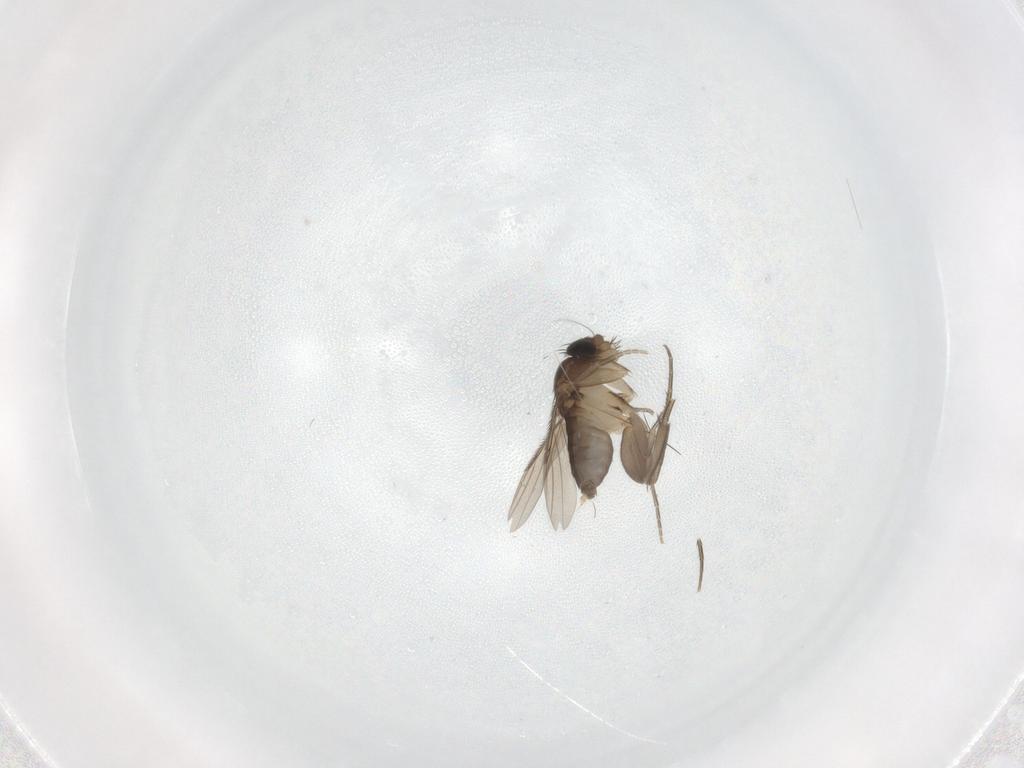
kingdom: Animalia
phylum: Arthropoda
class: Insecta
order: Diptera
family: Phoridae
